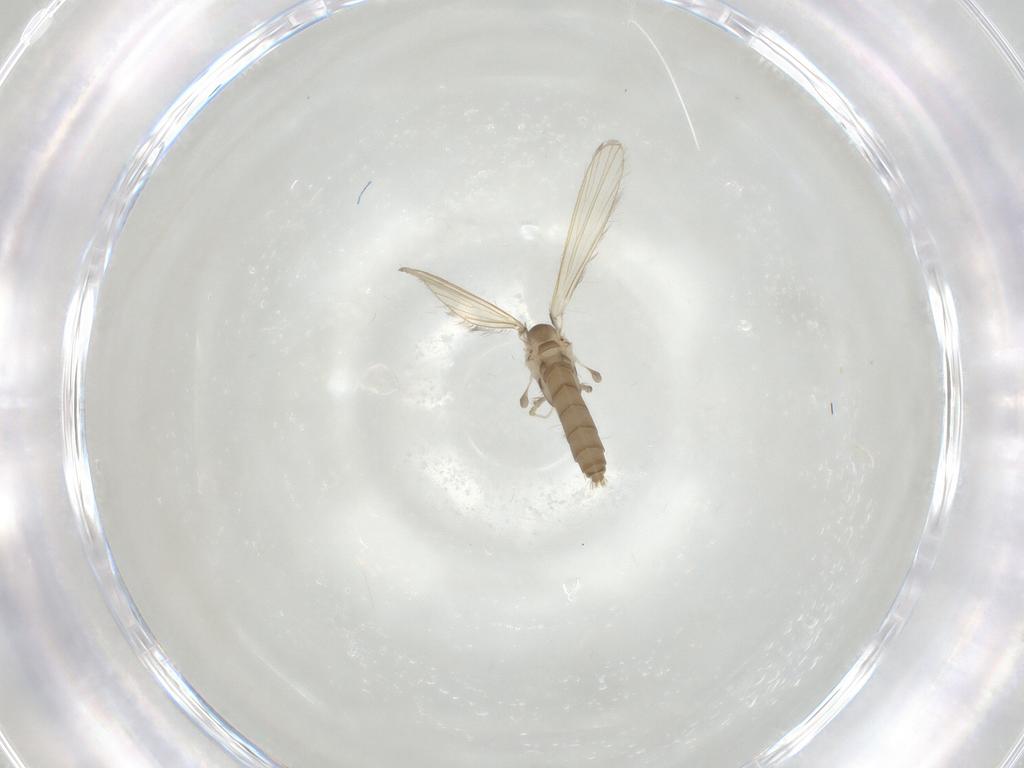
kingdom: Animalia
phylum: Arthropoda
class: Insecta
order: Diptera
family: Psychodidae
